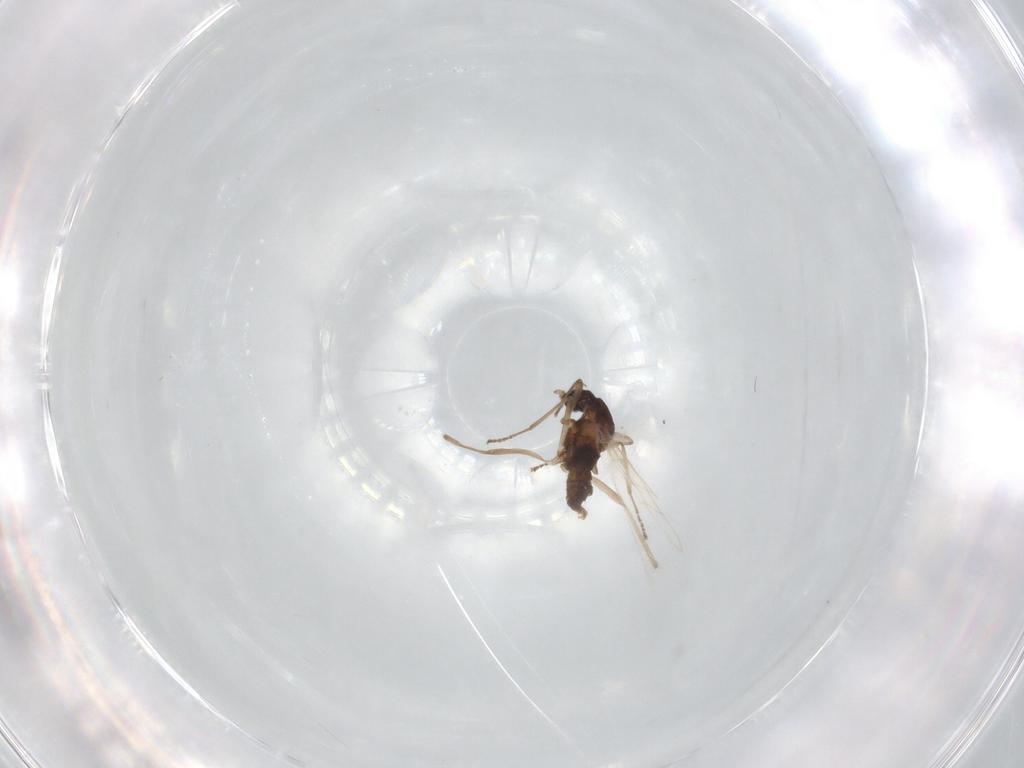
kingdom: Animalia
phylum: Arthropoda
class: Insecta
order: Diptera
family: Cecidomyiidae
